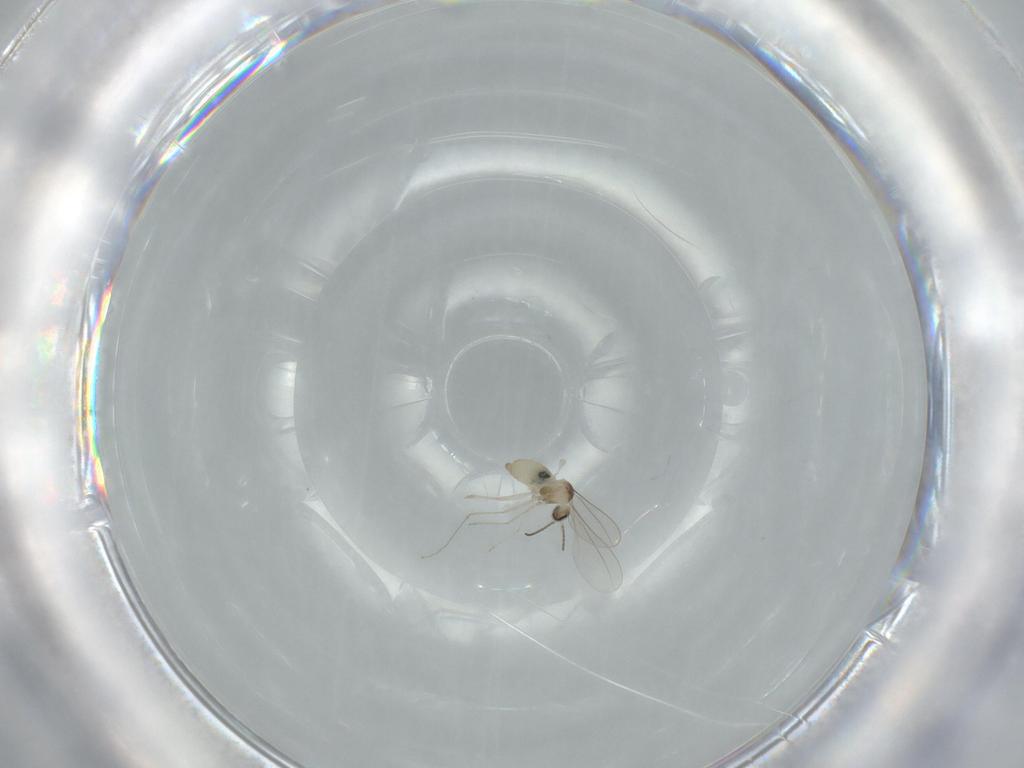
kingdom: Animalia
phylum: Arthropoda
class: Insecta
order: Diptera
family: Cecidomyiidae
